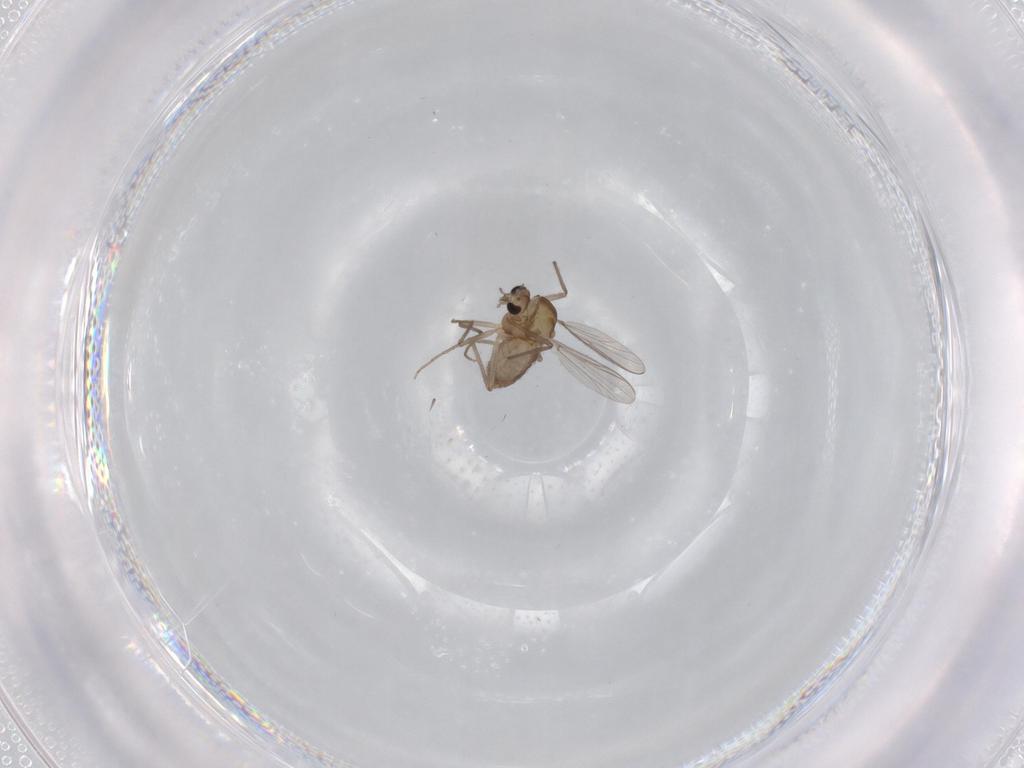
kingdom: Animalia
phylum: Arthropoda
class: Insecta
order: Diptera
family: Chironomidae
